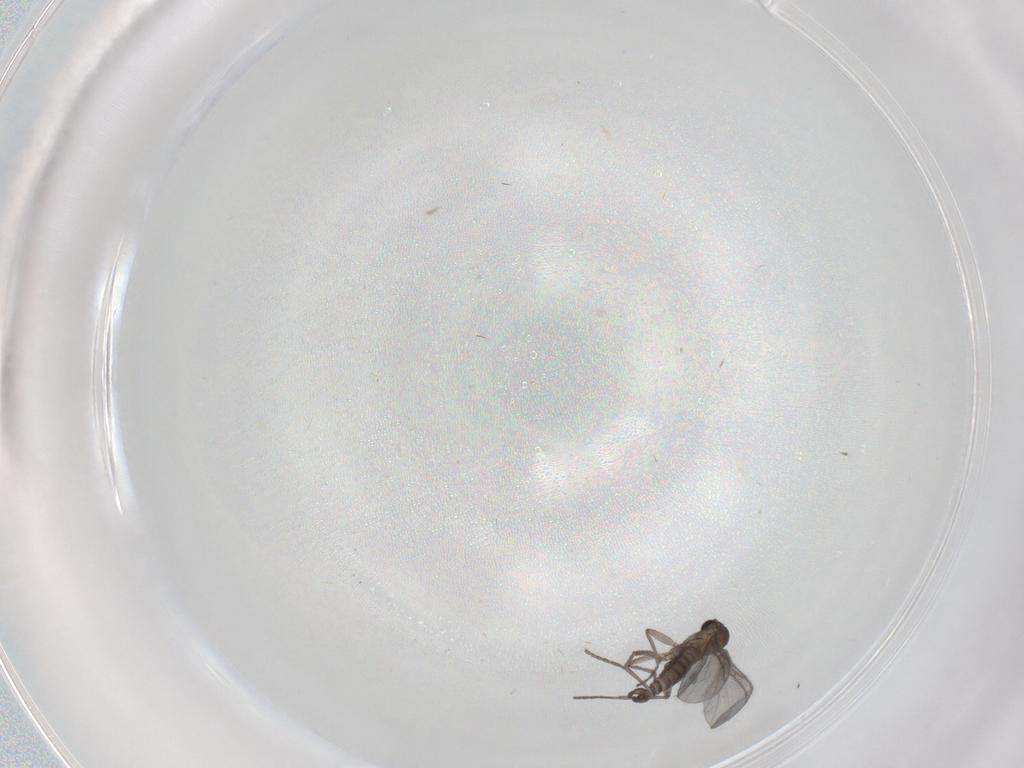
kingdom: Animalia
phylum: Arthropoda
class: Insecta
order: Diptera
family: Sciaridae
